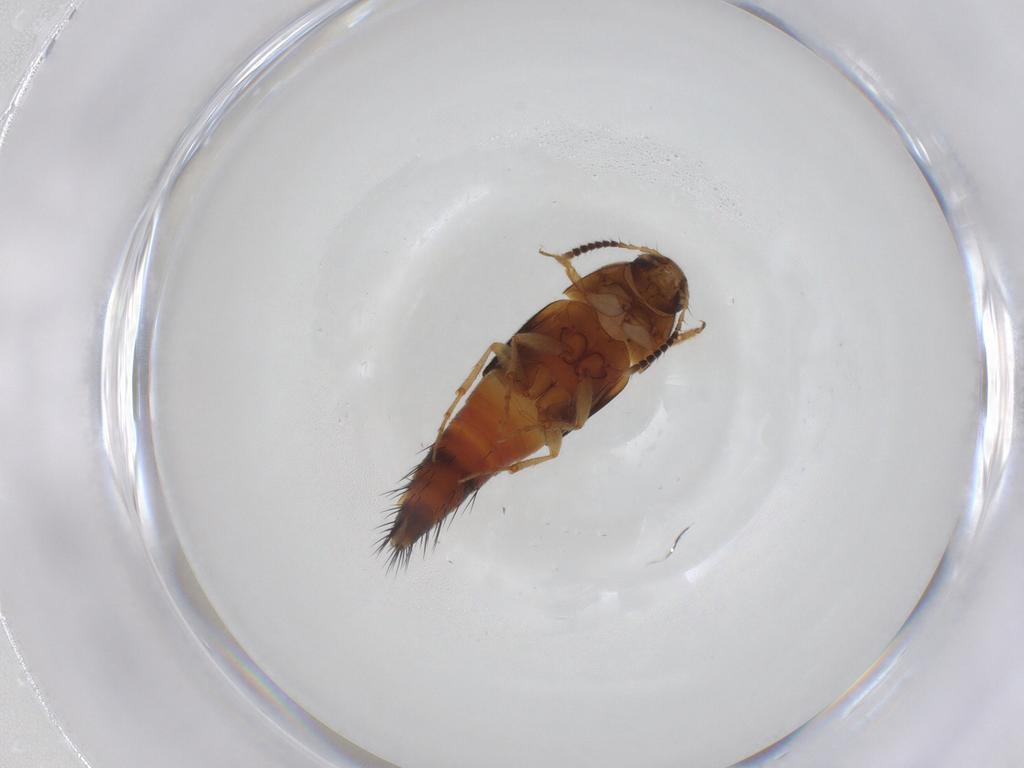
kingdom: Animalia
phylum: Arthropoda
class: Insecta
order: Coleoptera
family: Staphylinidae
